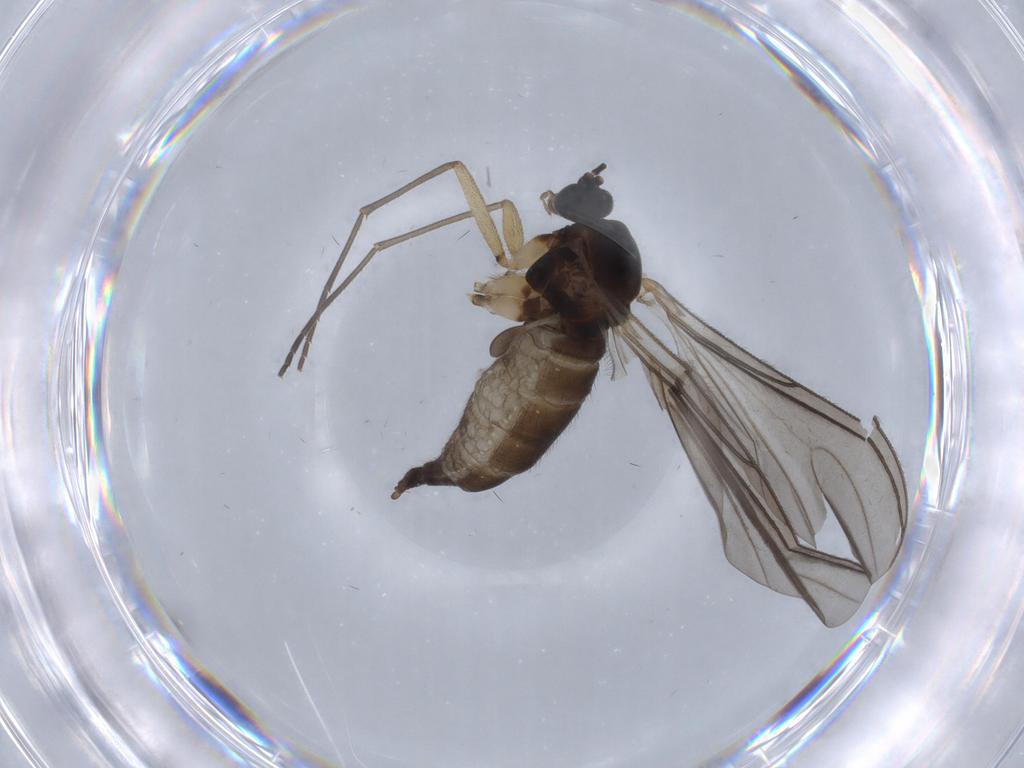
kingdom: Animalia
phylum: Arthropoda
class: Insecta
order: Diptera
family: Sciaridae
